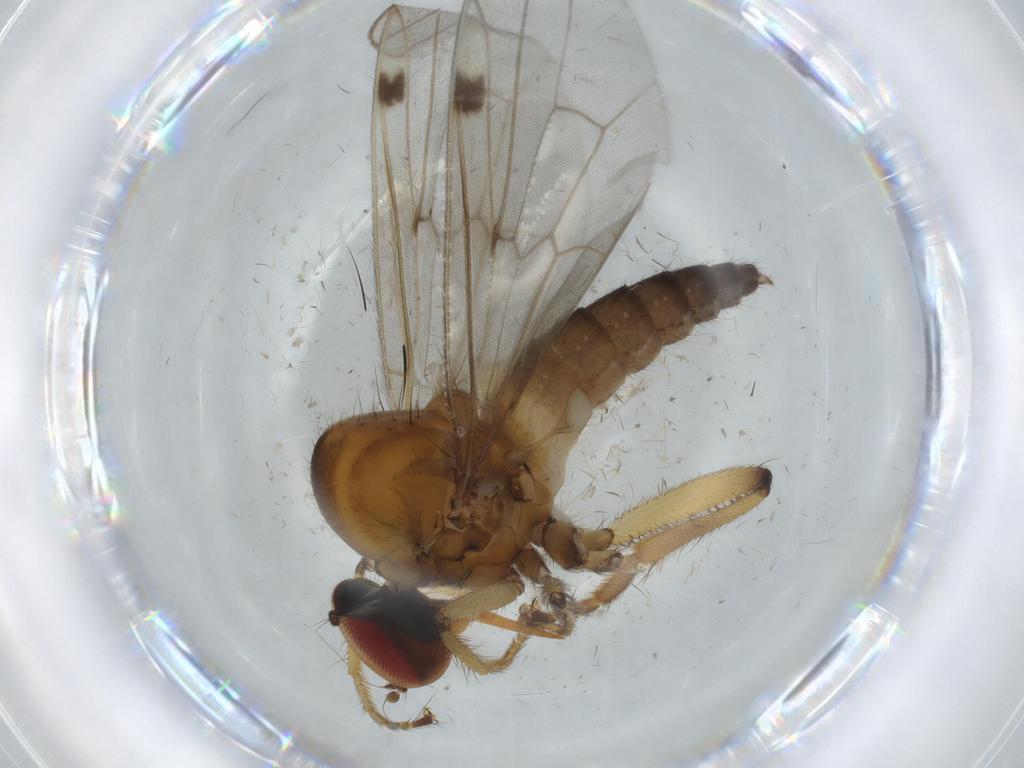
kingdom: Animalia
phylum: Arthropoda
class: Insecta
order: Diptera
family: Hybotidae
